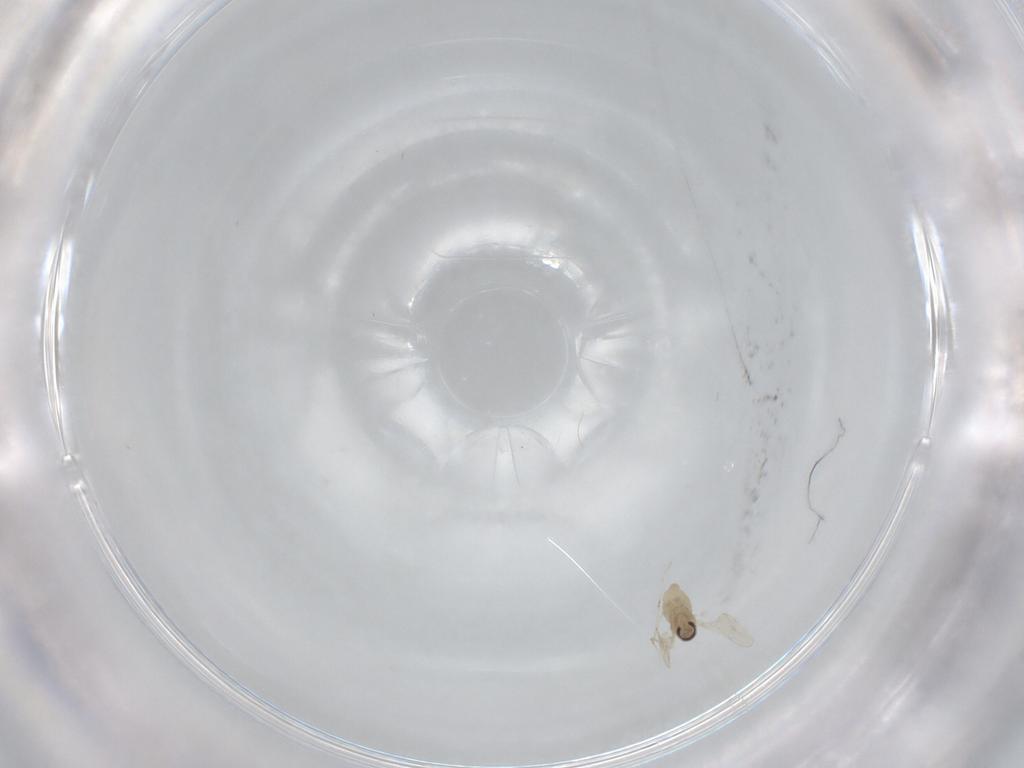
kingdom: Animalia
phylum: Arthropoda
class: Insecta
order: Diptera
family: Cecidomyiidae
